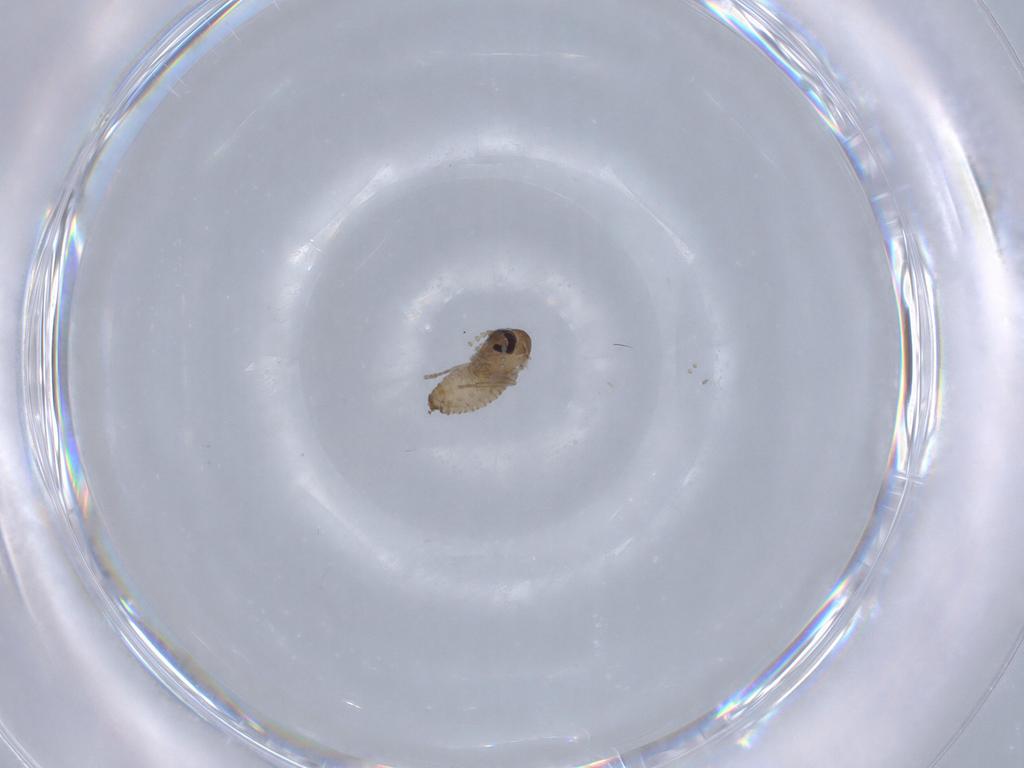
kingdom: Animalia
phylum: Arthropoda
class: Insecta
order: Diptera
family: Psychodidae
